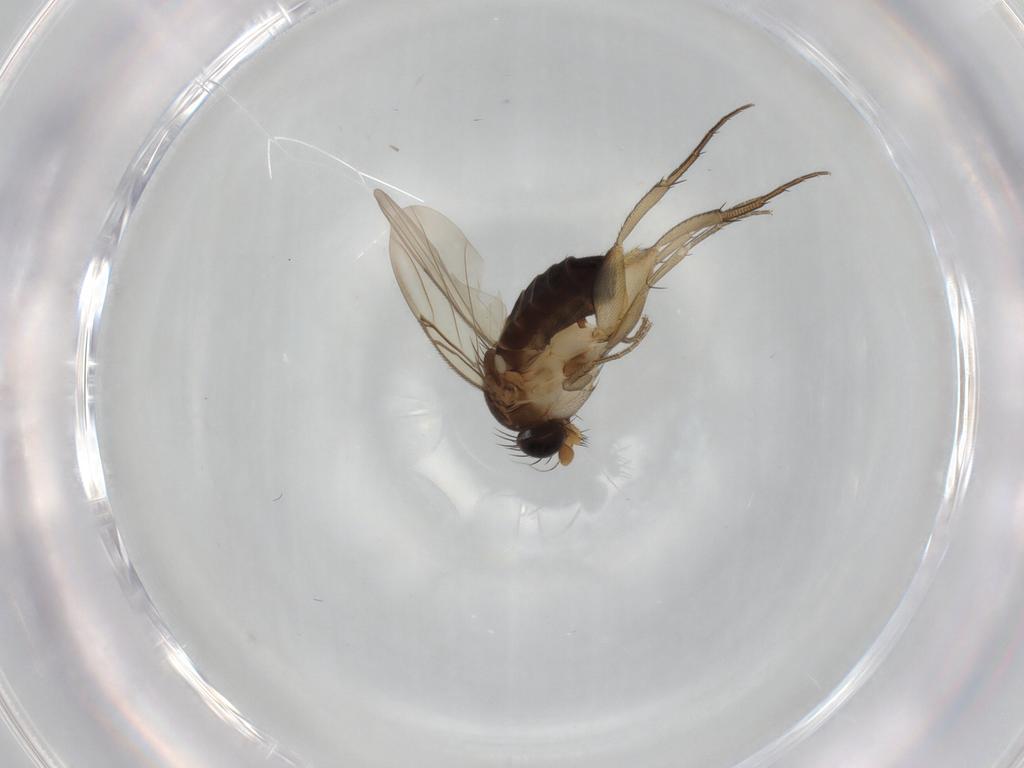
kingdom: Animalia
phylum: Arthropoda
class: Insecta
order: Diptera
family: Phoridae
